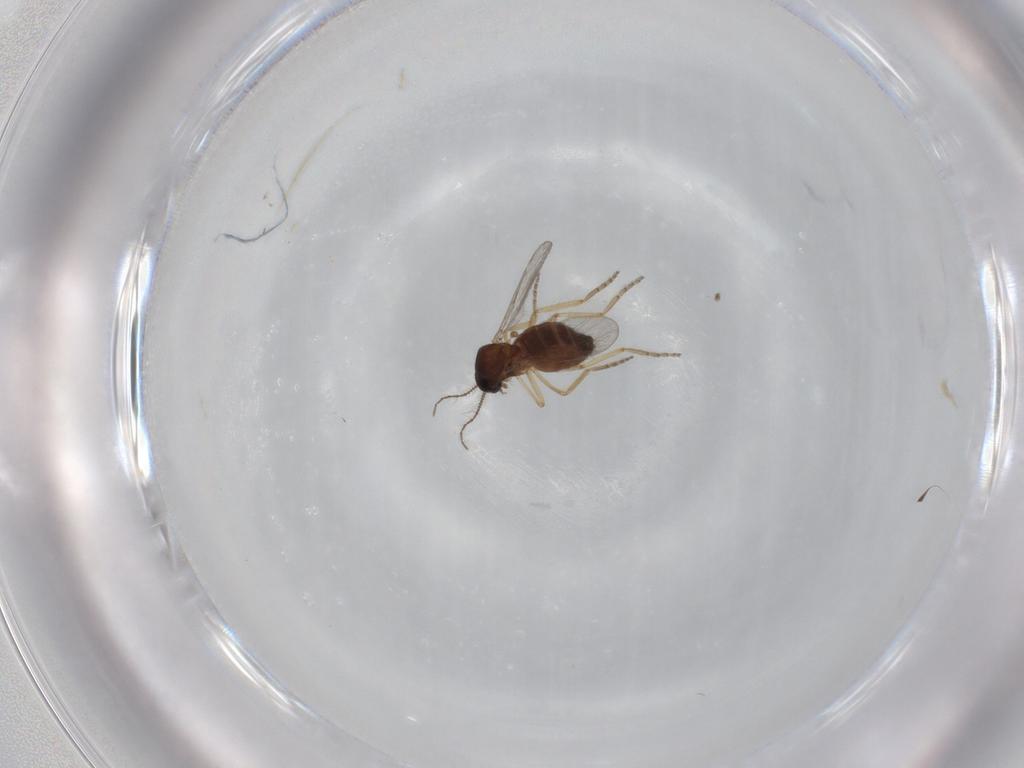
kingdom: Animalia
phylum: Arthropoda
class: Insecta
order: Diptera
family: Ceratopogonidae
